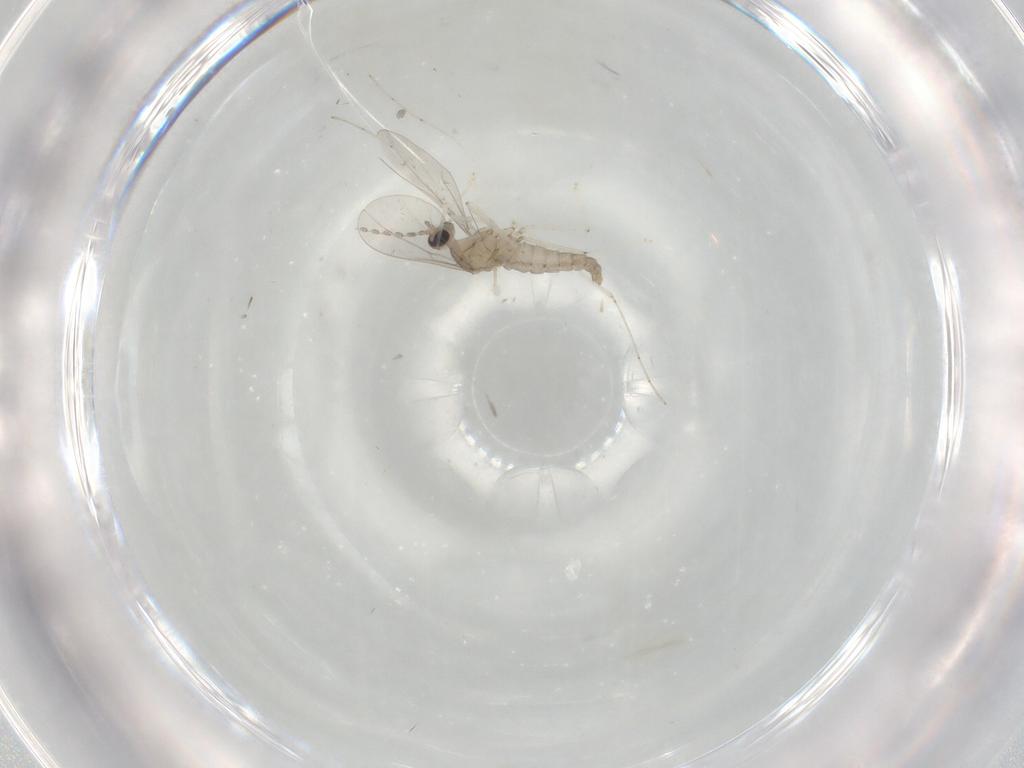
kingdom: Animalia
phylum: Arthropoda
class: Insecta
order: Diptera
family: Cecidomyiidae
